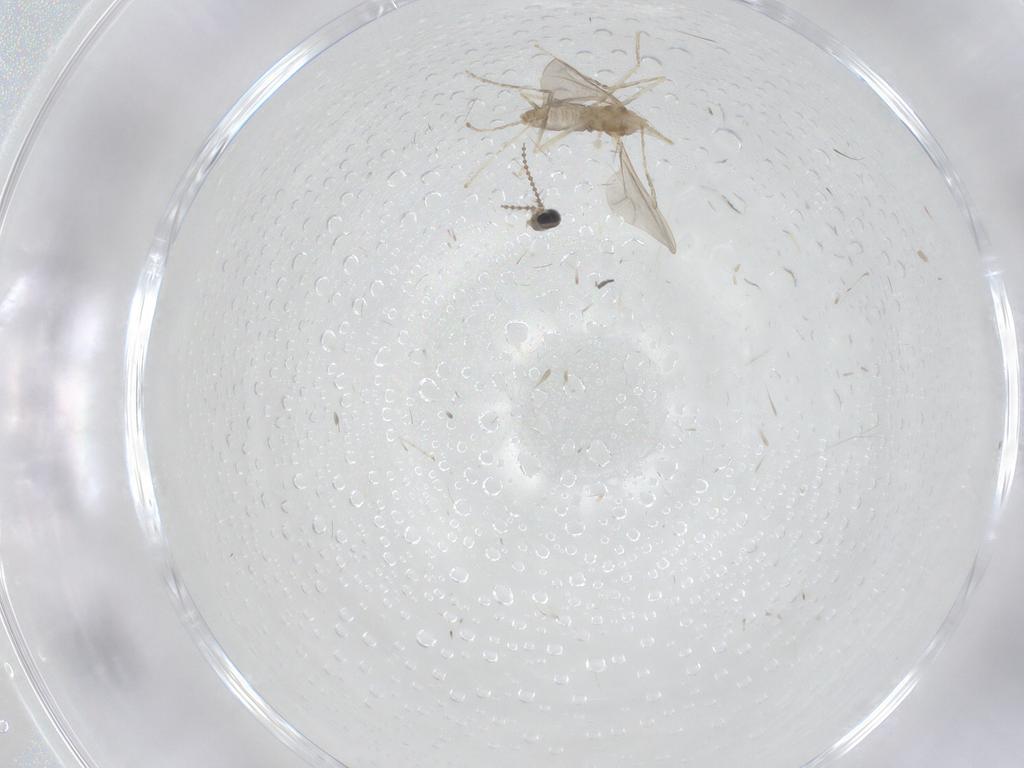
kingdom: Animalia
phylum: Arthropoda
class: Insecta
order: Diptera
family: Cecidomyiidae
